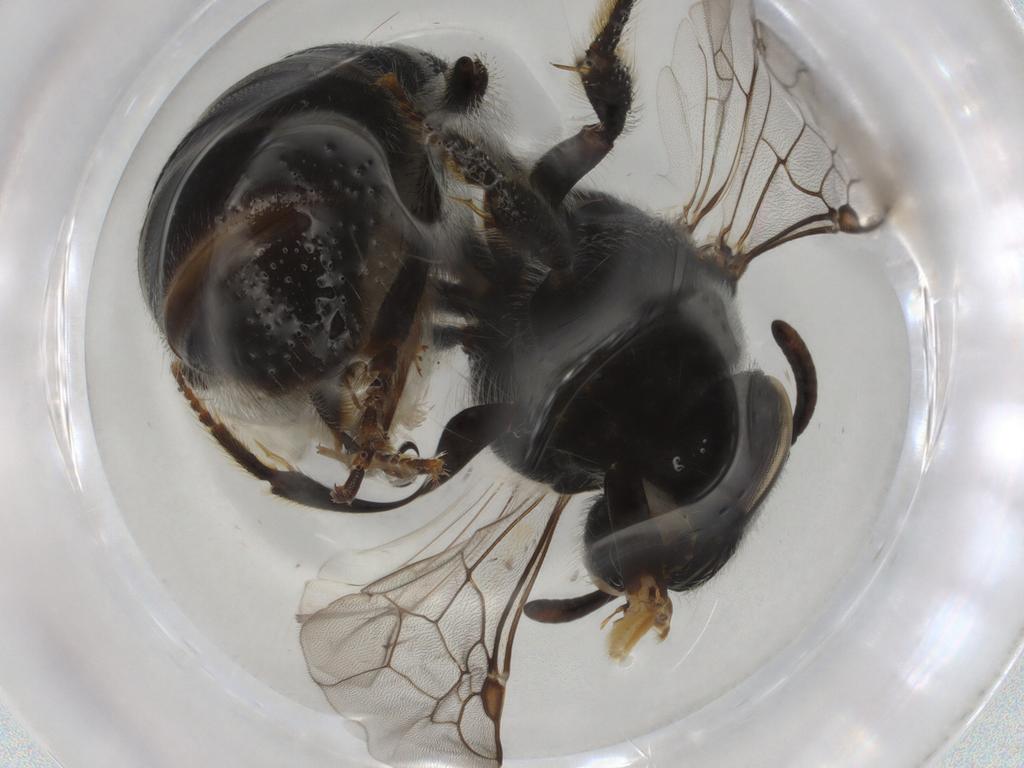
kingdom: Animalia
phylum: Arthropoda
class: Insecta
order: Hymenoptera
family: Halictidae
